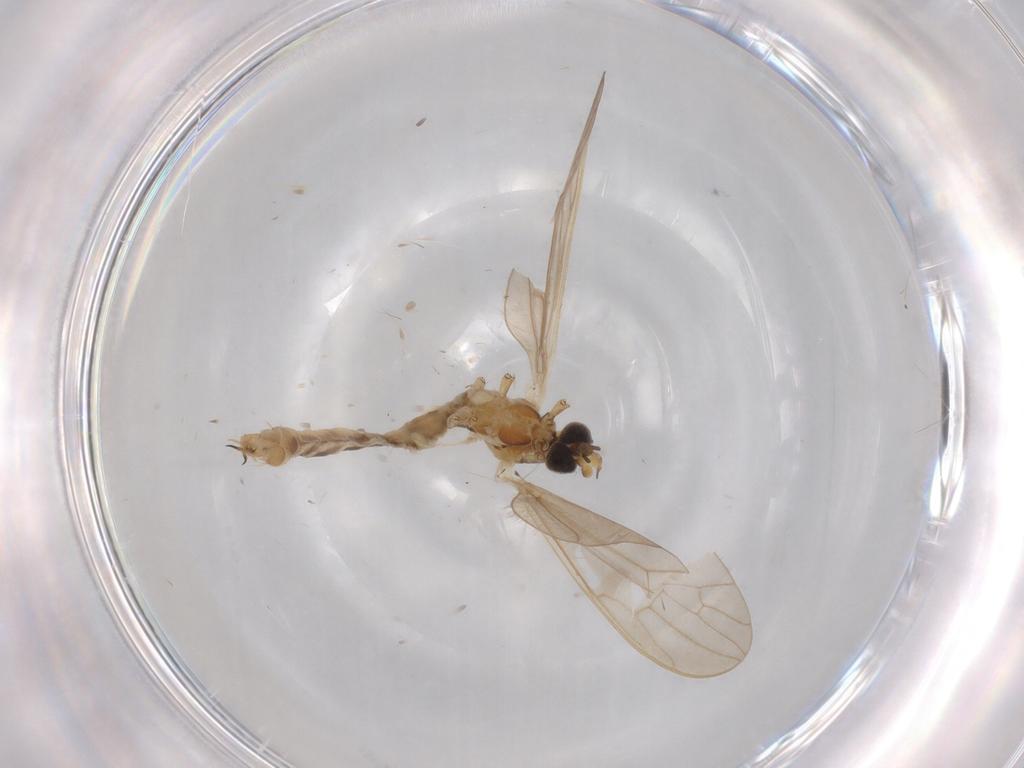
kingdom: Animalia
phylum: Arthropoda
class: Insecta
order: Diptera
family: Limoniidae
